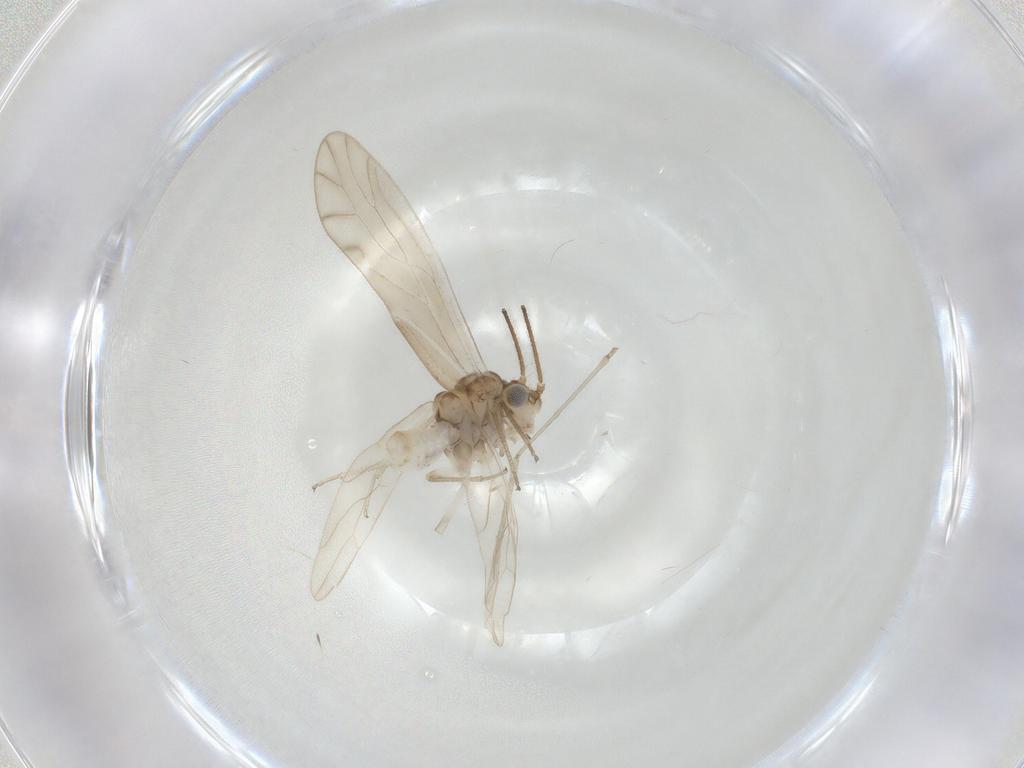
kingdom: Animalia
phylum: Arthropoda
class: Insecta
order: Psocodea
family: Caeciliusidae
